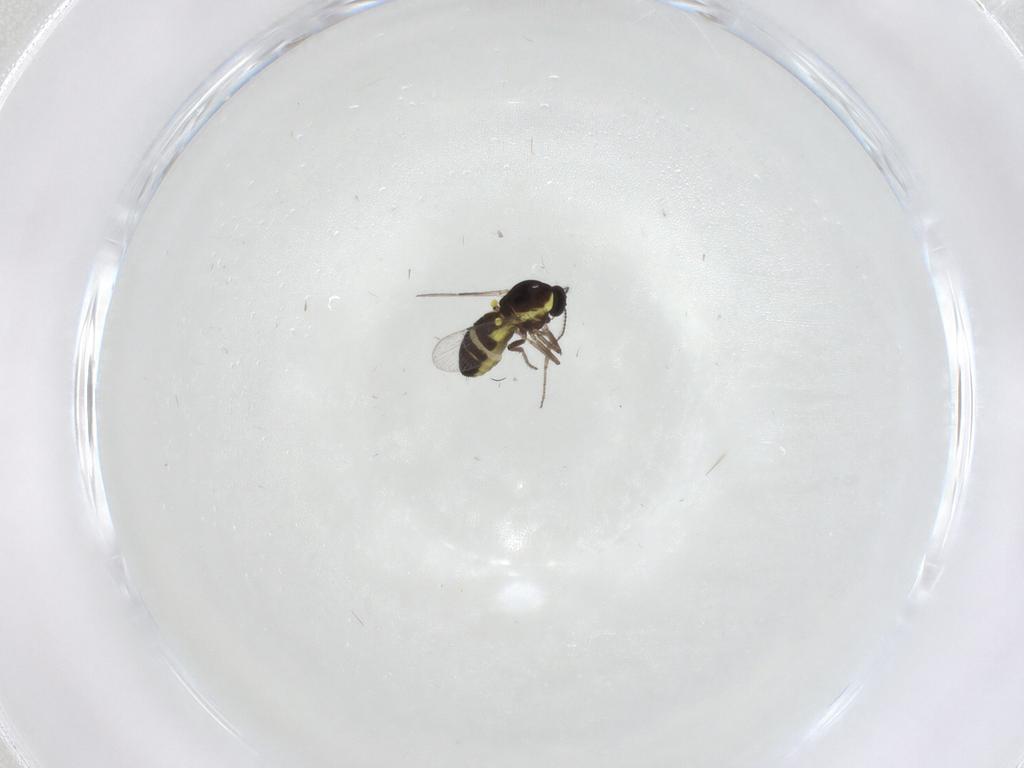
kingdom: Animalia
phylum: Arthropoda
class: Insecta
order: Diptera
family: Ceratopogonidae
